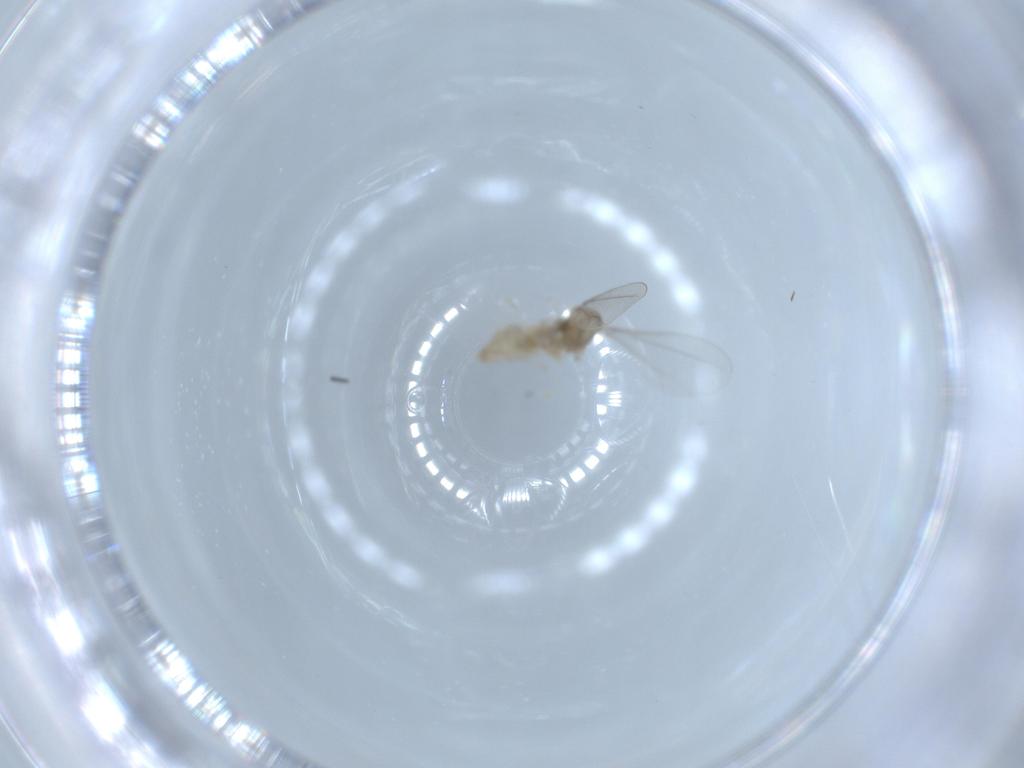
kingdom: Animalia
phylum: Arthropoda
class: Insecta
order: Diptera
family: Cecidomyiidae
